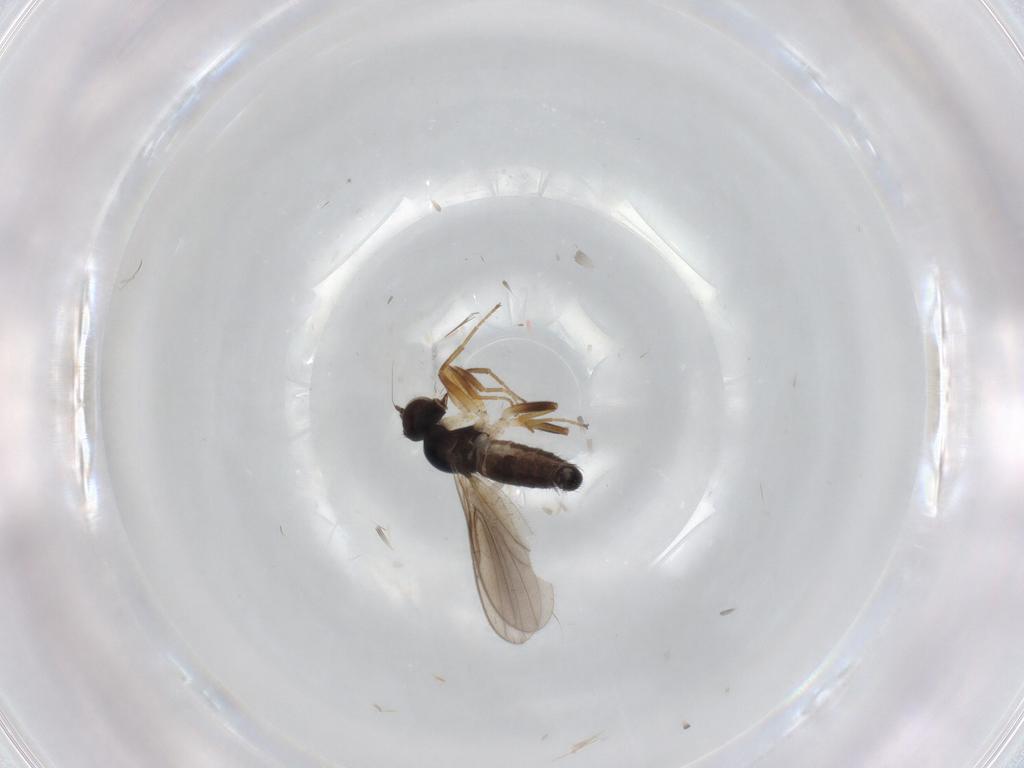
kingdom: Animalia
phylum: Arthropoda
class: Insecta
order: Diptera
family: Hybotidae
